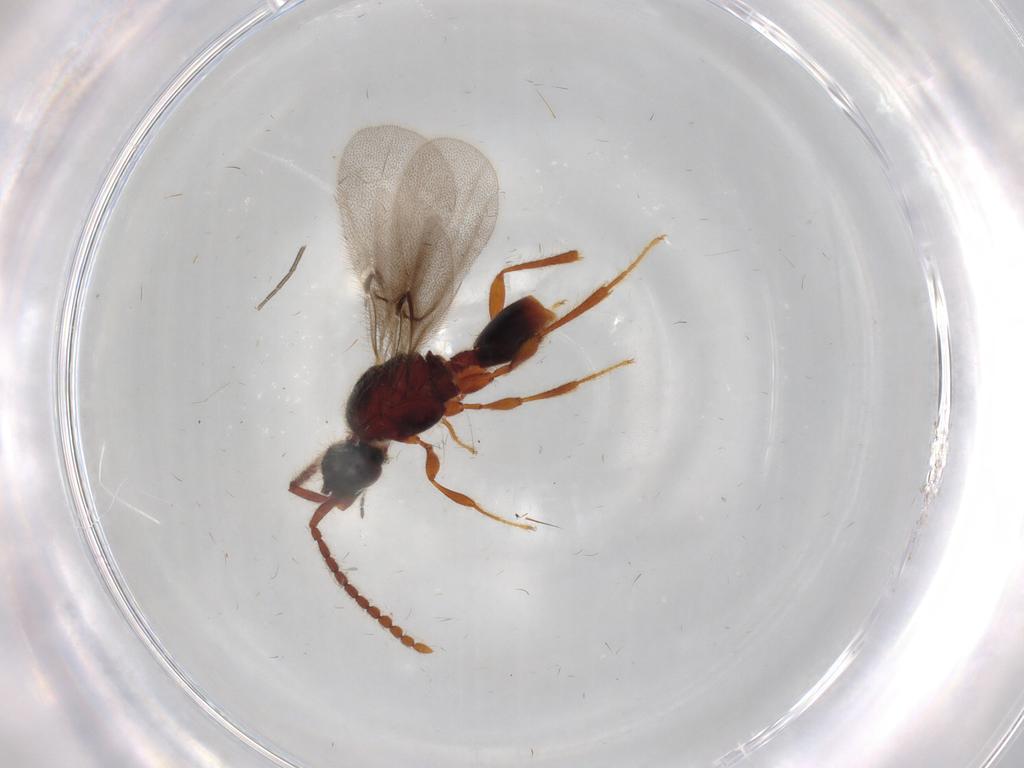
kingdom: Animalia
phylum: Arthropoda
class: Insecta
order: Hymenoptera
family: Diapriidae
